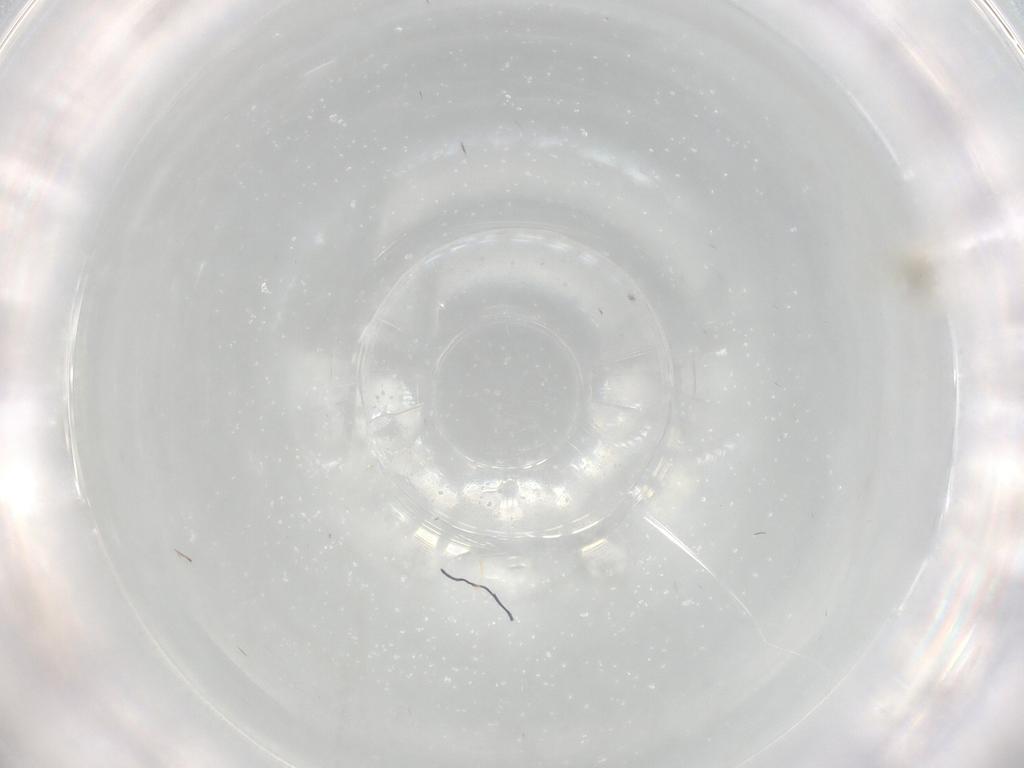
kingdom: Animalia
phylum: Arthropoda
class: Insecta
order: Diptera
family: Cecidomyiidae
